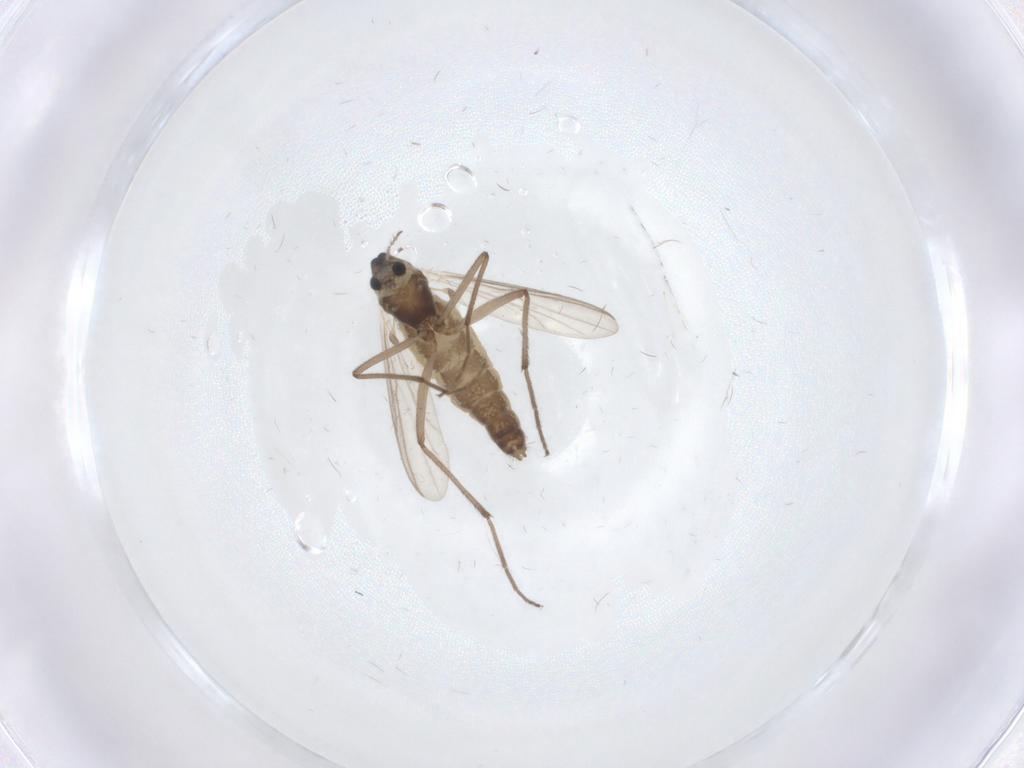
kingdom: Animalia
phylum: Arthropoda
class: Insecta
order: Diptera
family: Chironomidae
